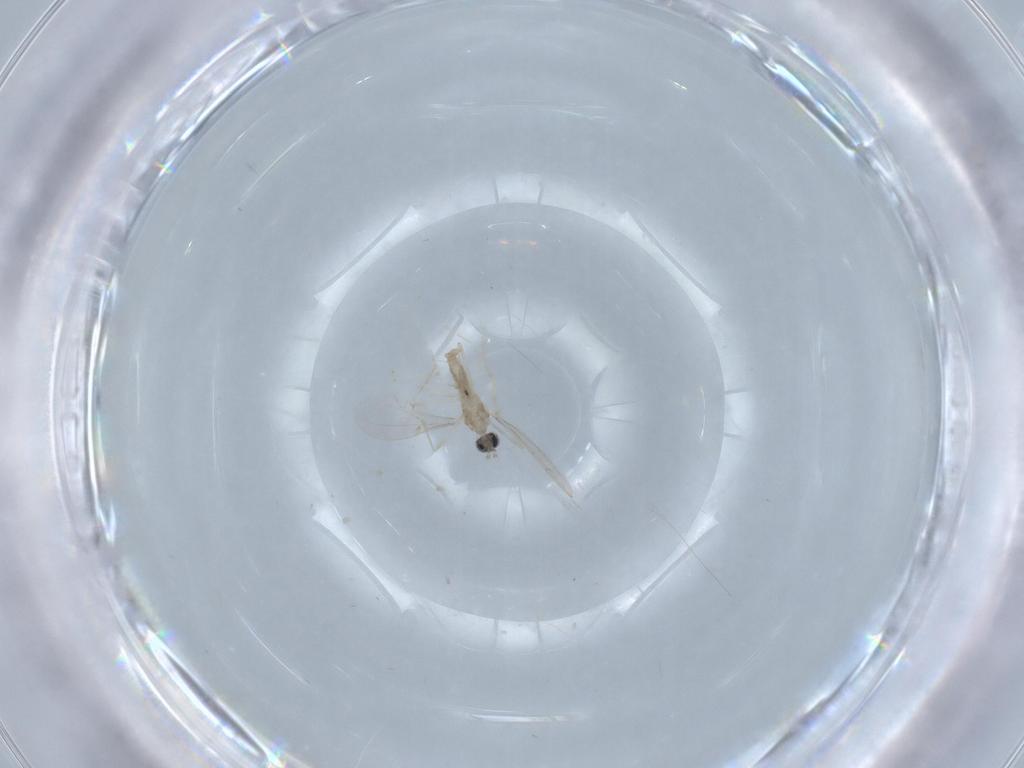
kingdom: Animalia
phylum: Arthropoda
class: Insecta
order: Diptera
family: Cecidomyiidae
